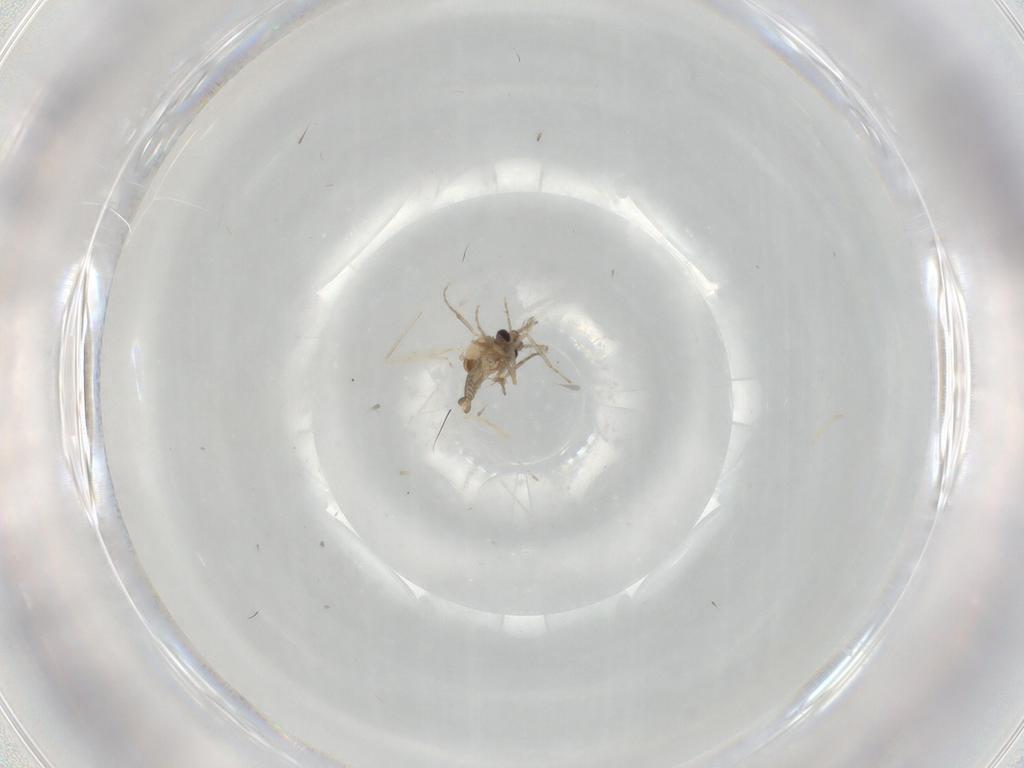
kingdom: Animalia
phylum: Arthropoda
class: Insecta
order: Diptera
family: Ceratopogonidae
